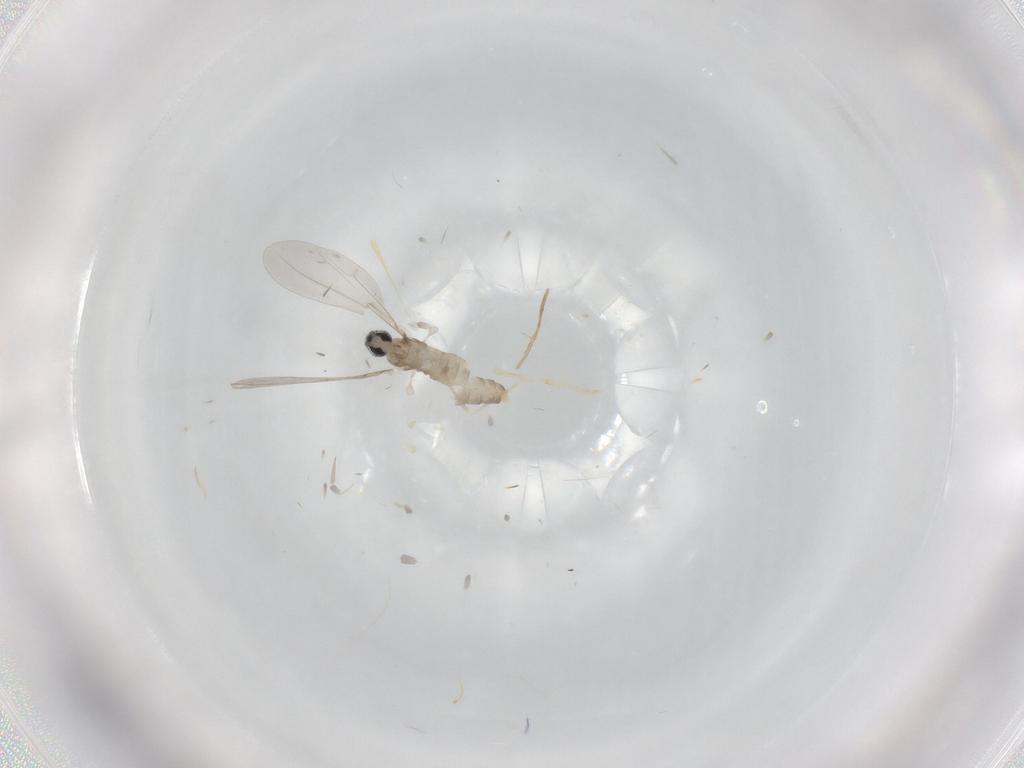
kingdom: Animalia
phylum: Arthropoda
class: Insecta
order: Diptera
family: Cecidomyiidae
